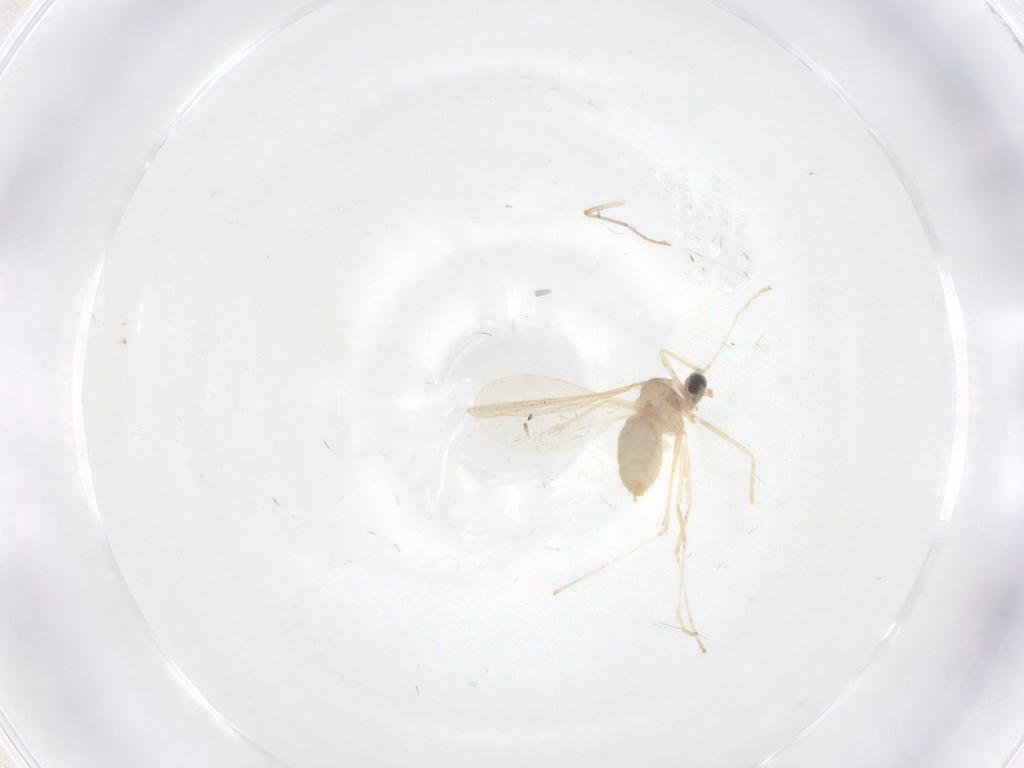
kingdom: Animalia
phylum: Arthropoda
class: Insecta
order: Diptera
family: Cecidomyiidae
